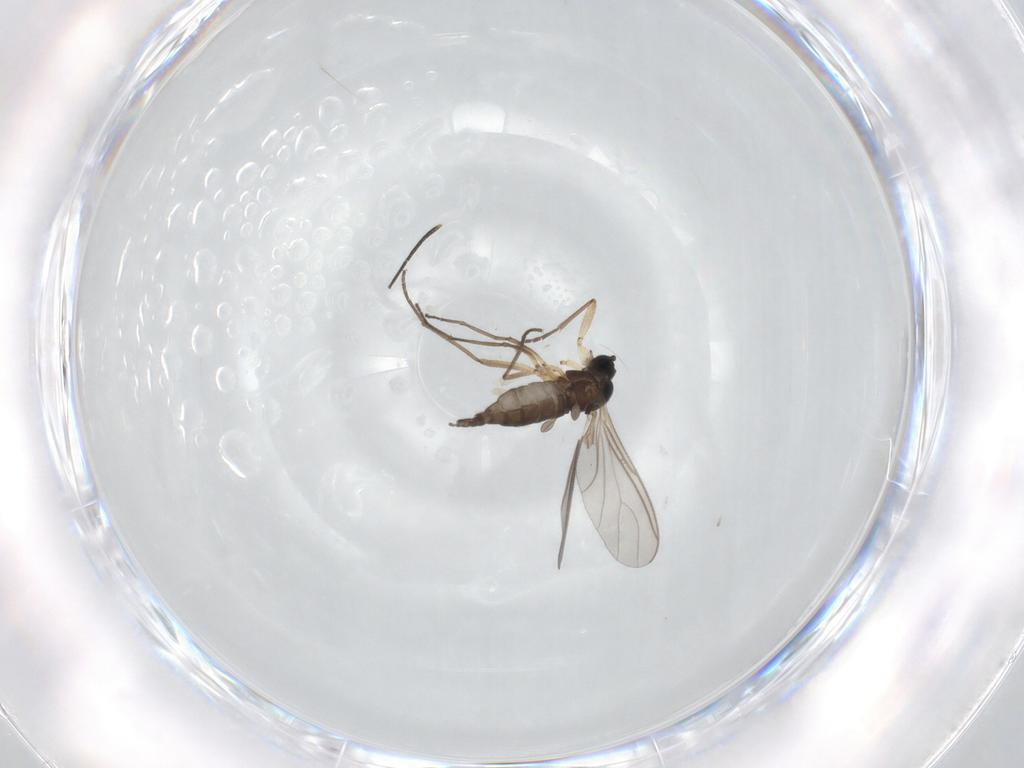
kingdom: Animalia
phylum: Arthropoda
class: Insecta
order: Diptera
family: Sciaridae
